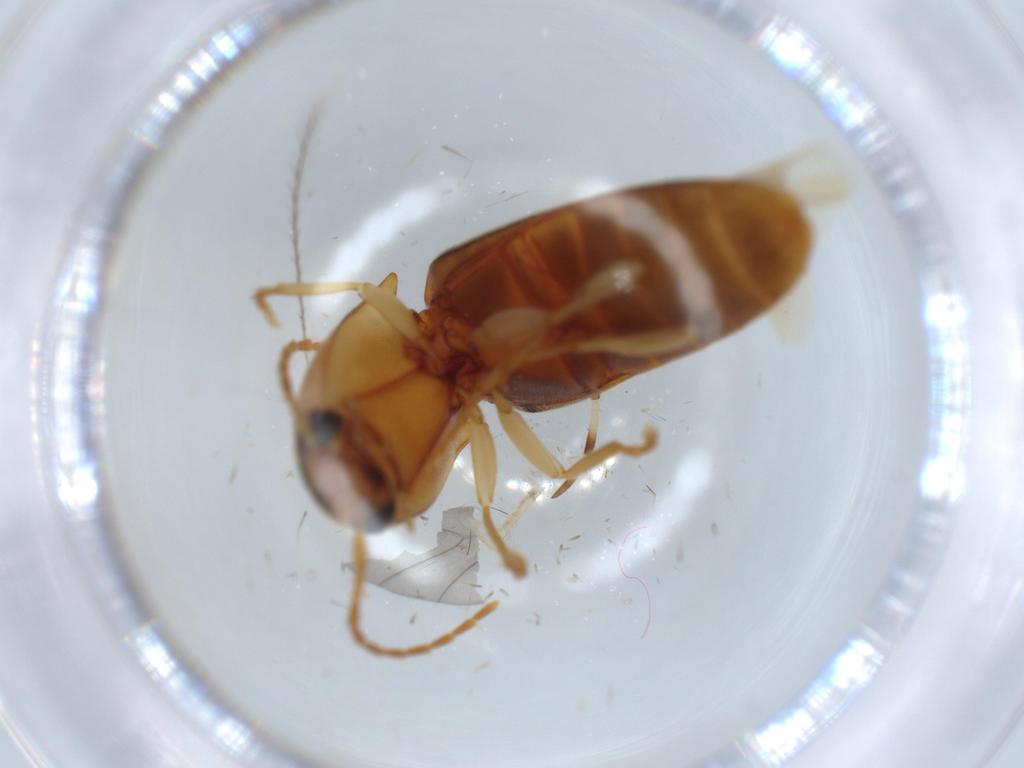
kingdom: Animalia
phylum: Arthropoda
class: Insecta
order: Coleoptera
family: Cerambycidae
